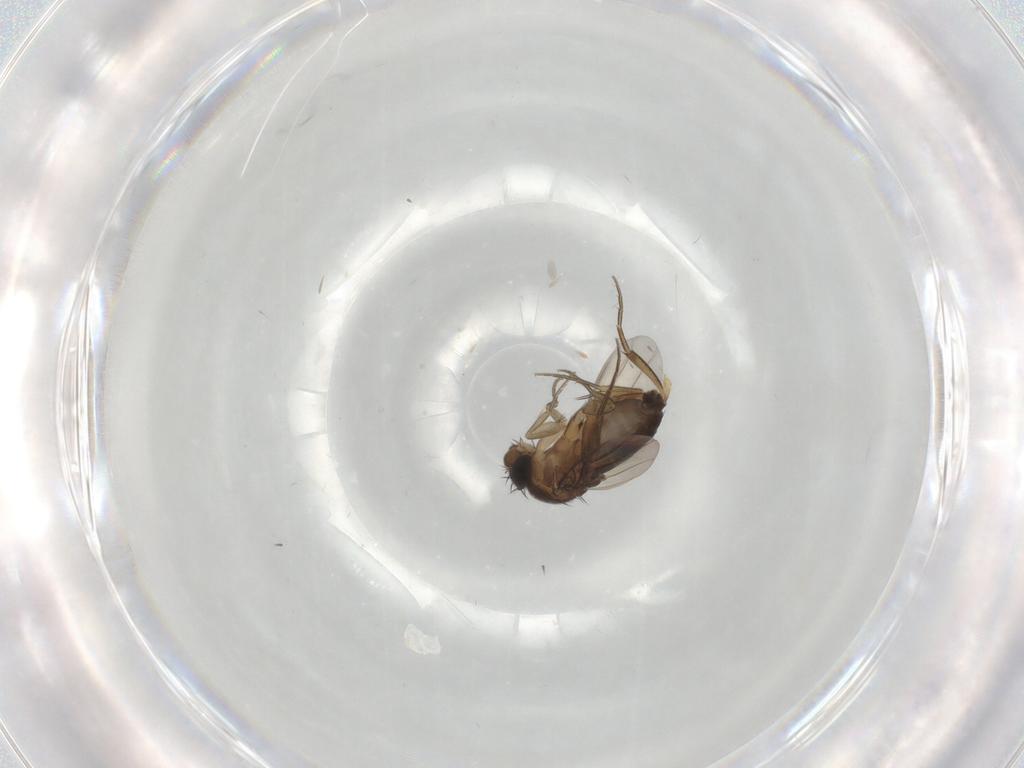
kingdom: Animalia
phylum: Arthropoda
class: Insecta
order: Diptera
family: Phoridae
